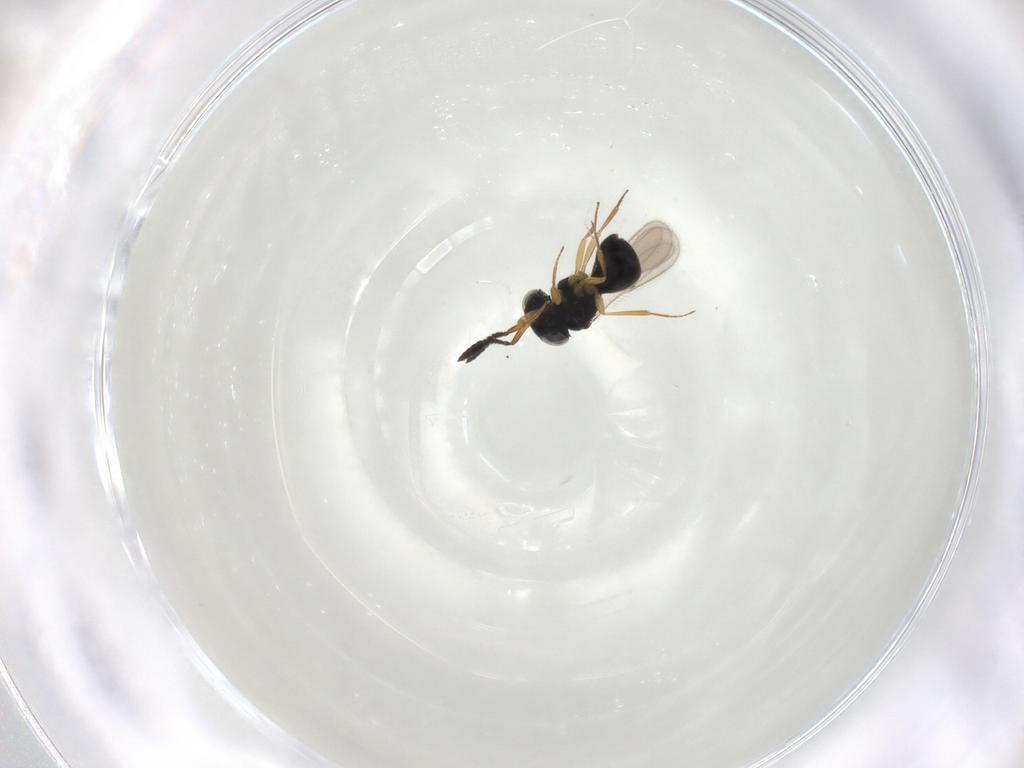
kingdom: Animalia
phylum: Arthropoda
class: Insecta
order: Hymenoptera
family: Scelionidae
